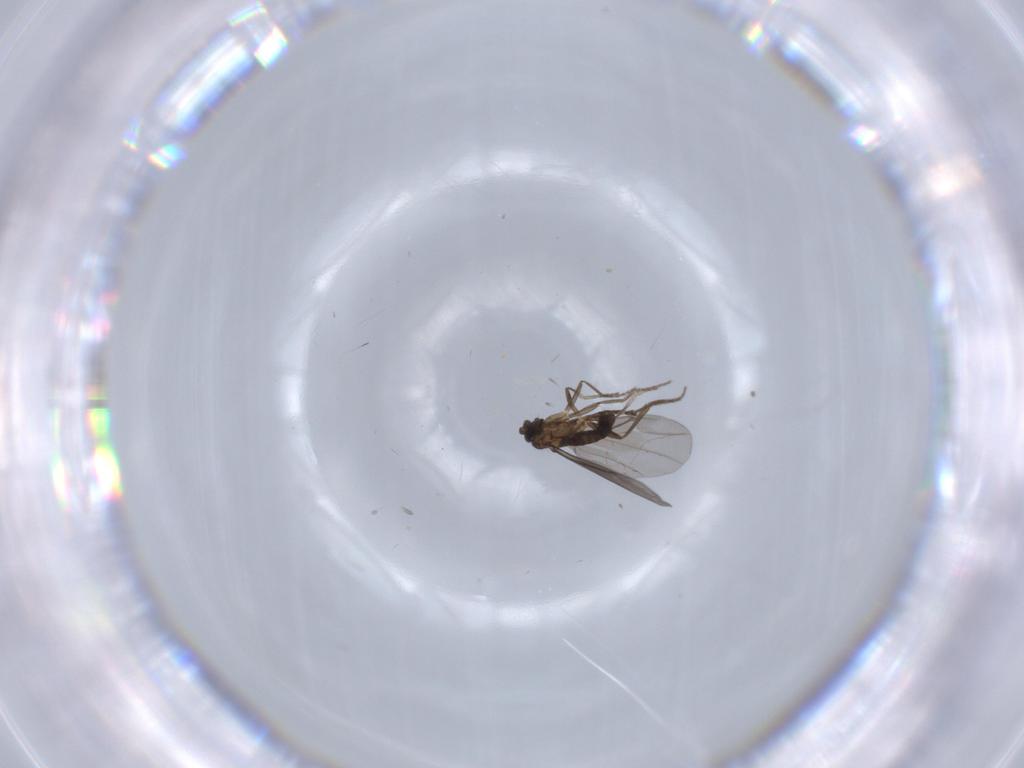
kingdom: Animalia
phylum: Arthropoda
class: Insecta
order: Diptera
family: Phoridae
